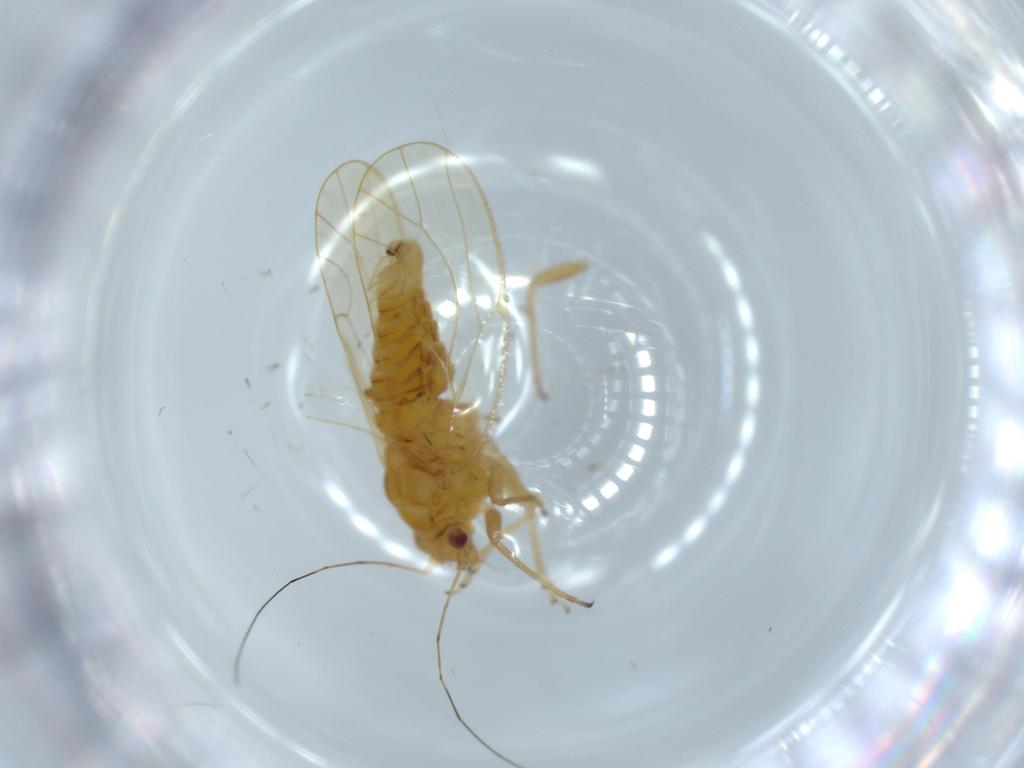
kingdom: Animalia
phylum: Arthropoda
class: Insecta
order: Hemiptera
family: Psyllidae
